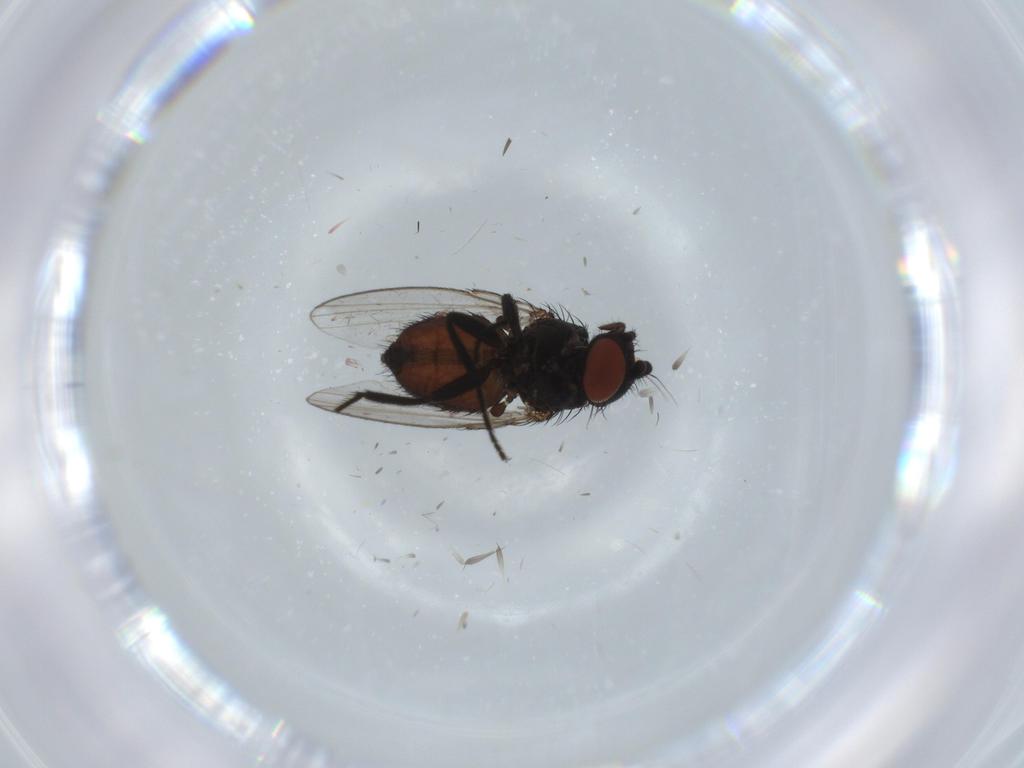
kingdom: Animalia
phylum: Arthropoda
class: Insecta
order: Diptera
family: Milichiidae
